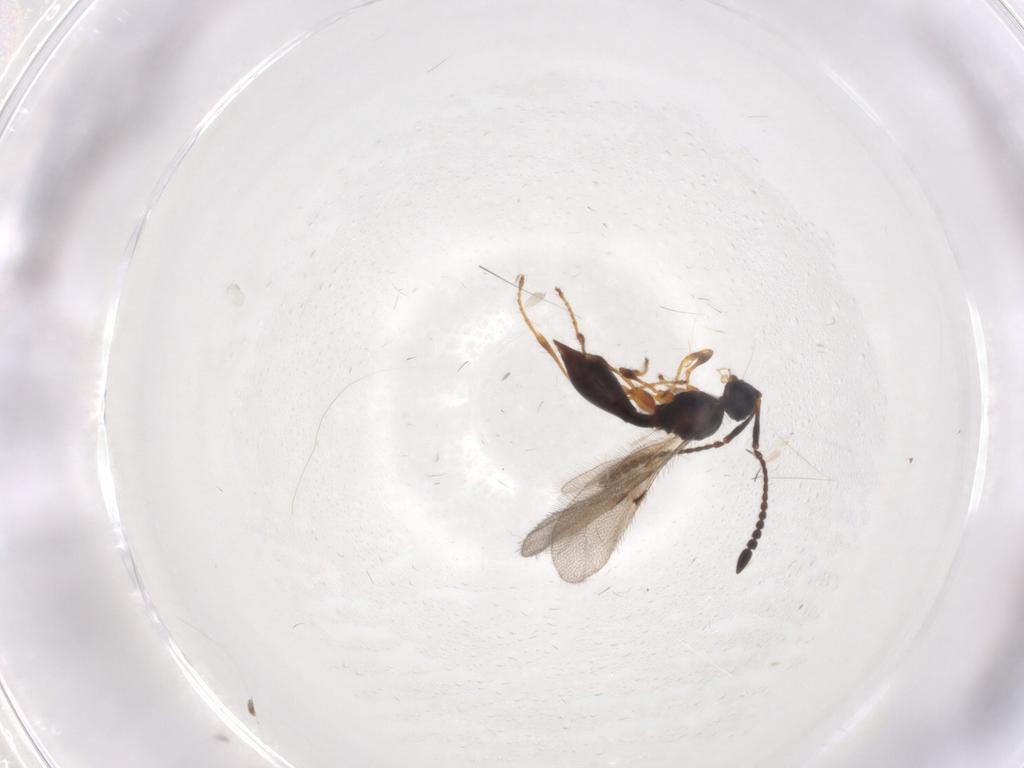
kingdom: Animalia
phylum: Arthropoda
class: Insecta
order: Hymenoptera
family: Diapriidae
